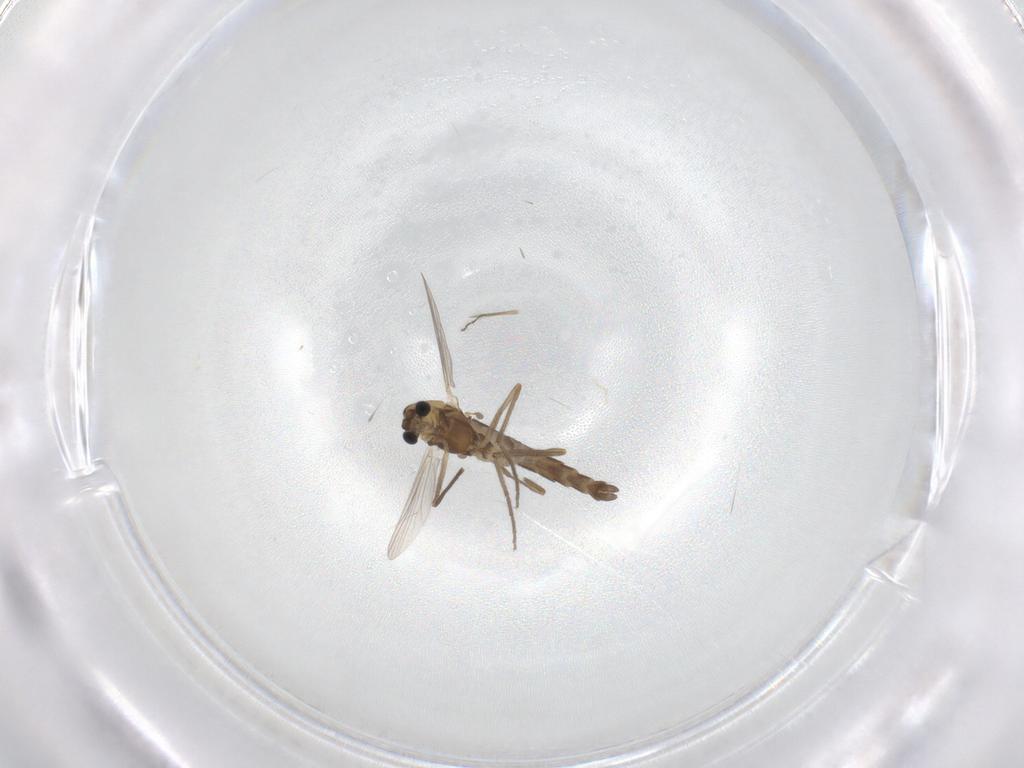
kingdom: Animalia
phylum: Arthropoda
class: Insecta
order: Diptera
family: Chironomidae
